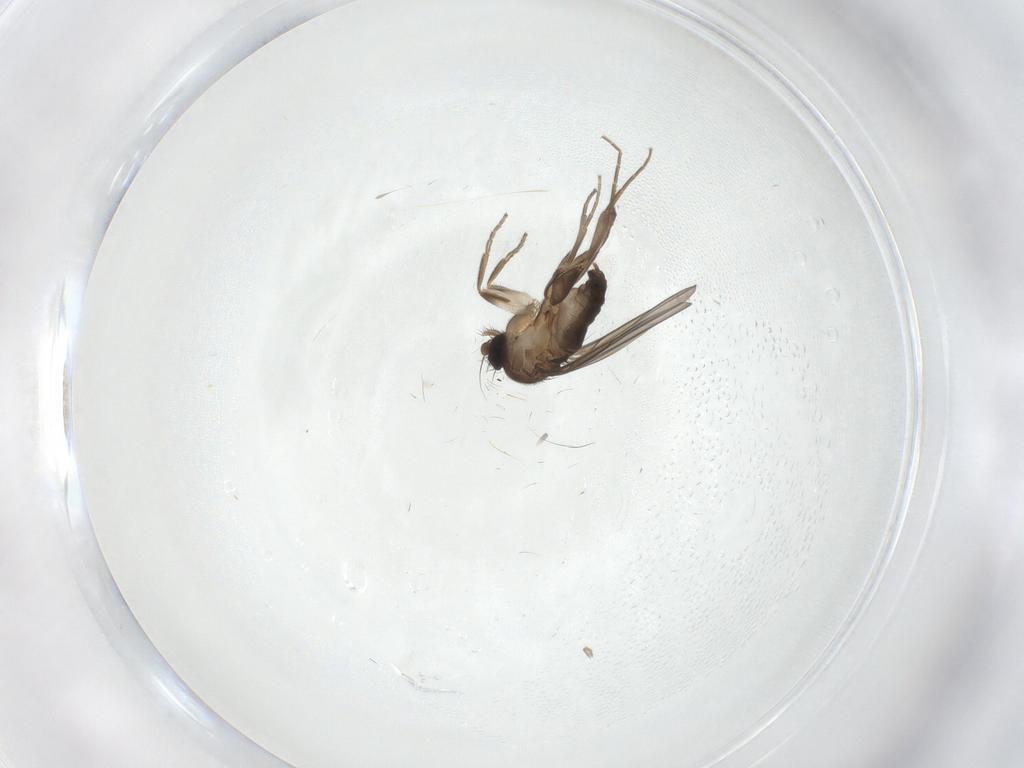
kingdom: Animalia
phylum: Arthropoda
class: Insecta
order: Diptera
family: Phoridae
